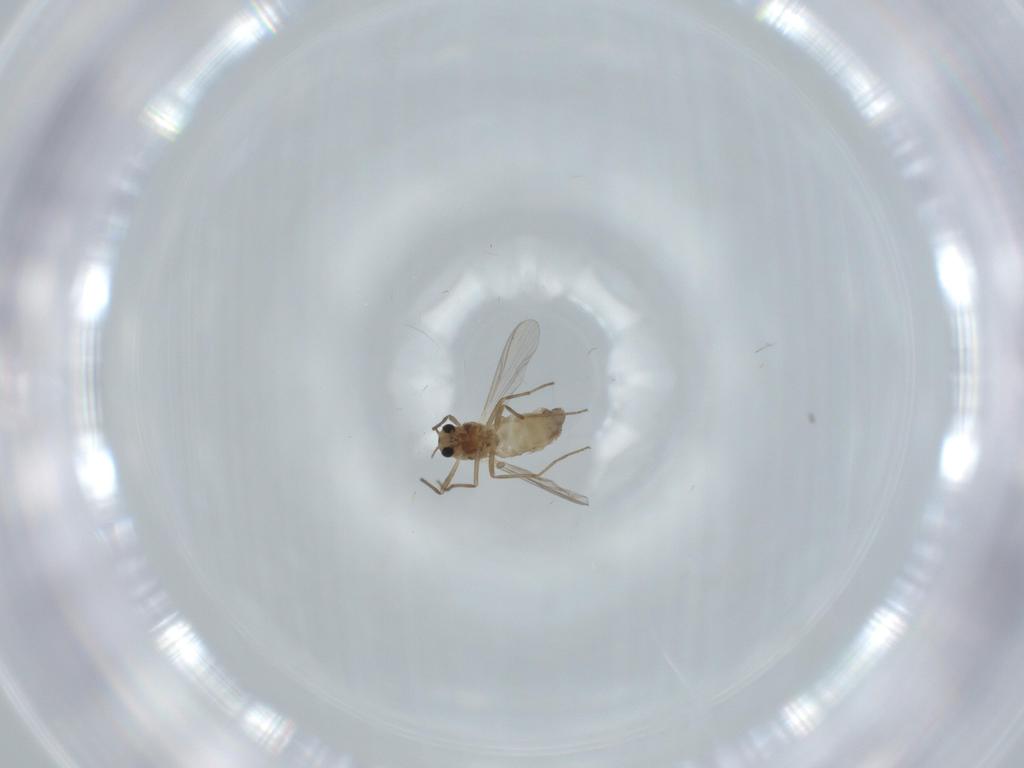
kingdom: Animalia
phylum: Arthropoda
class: Insecta
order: Diptera
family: Chironomidae
